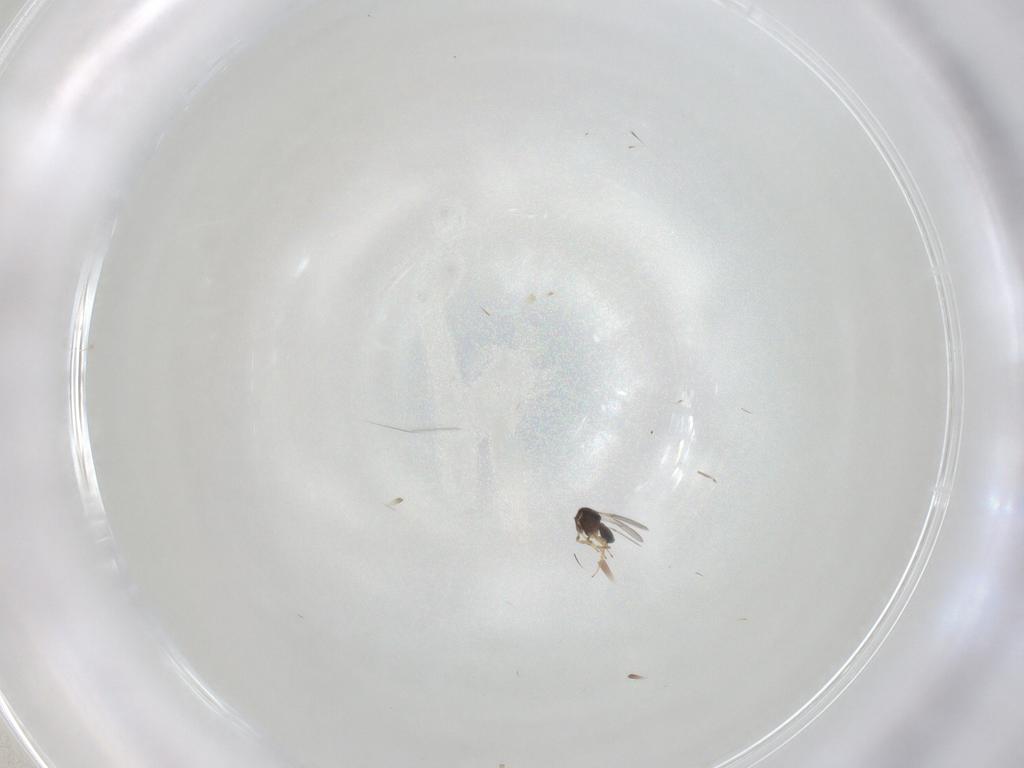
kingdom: Animalia
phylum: Arthropoda
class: Insecta
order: Hymenoptera
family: Scelionidae
